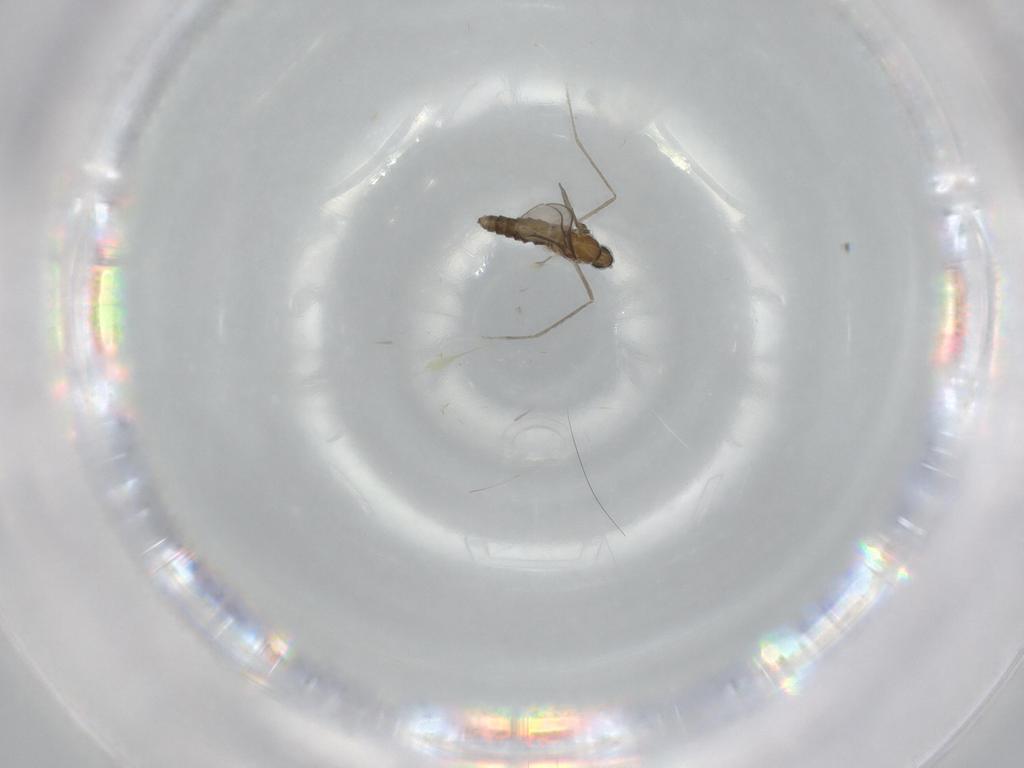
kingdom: Animalia
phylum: Arthropoda
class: Insecta
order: Diptera
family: Cecidomyiidae
